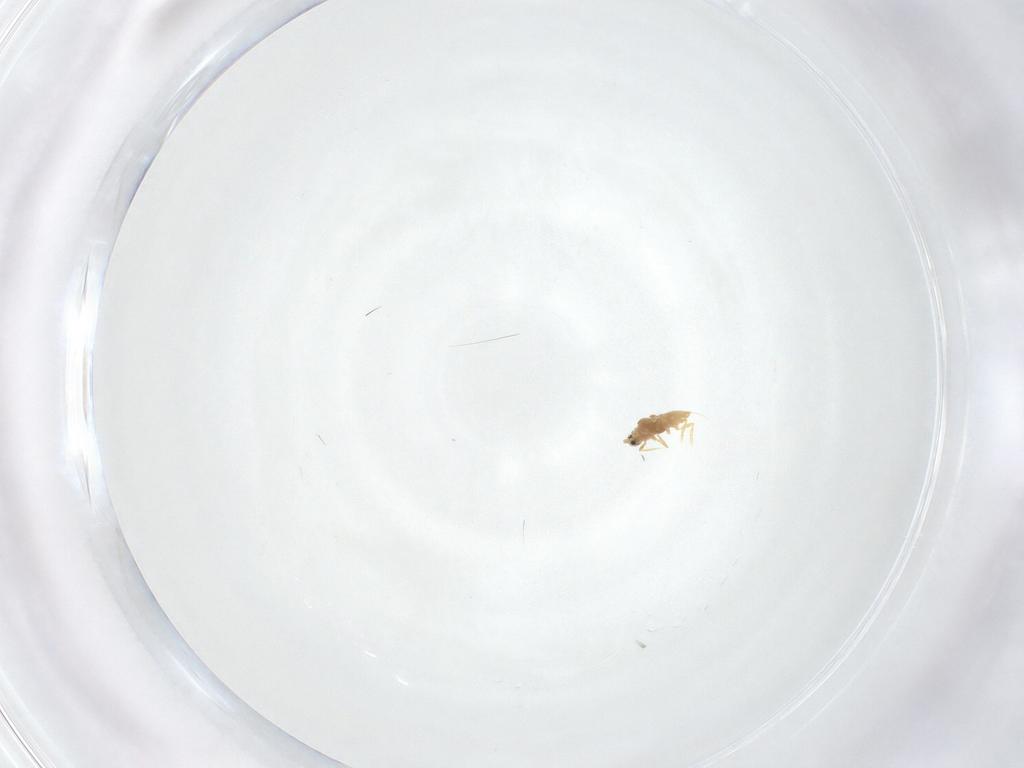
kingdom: Animalia
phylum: Arthropoda
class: Insecta
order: Hemiptera
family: Diaspididae
